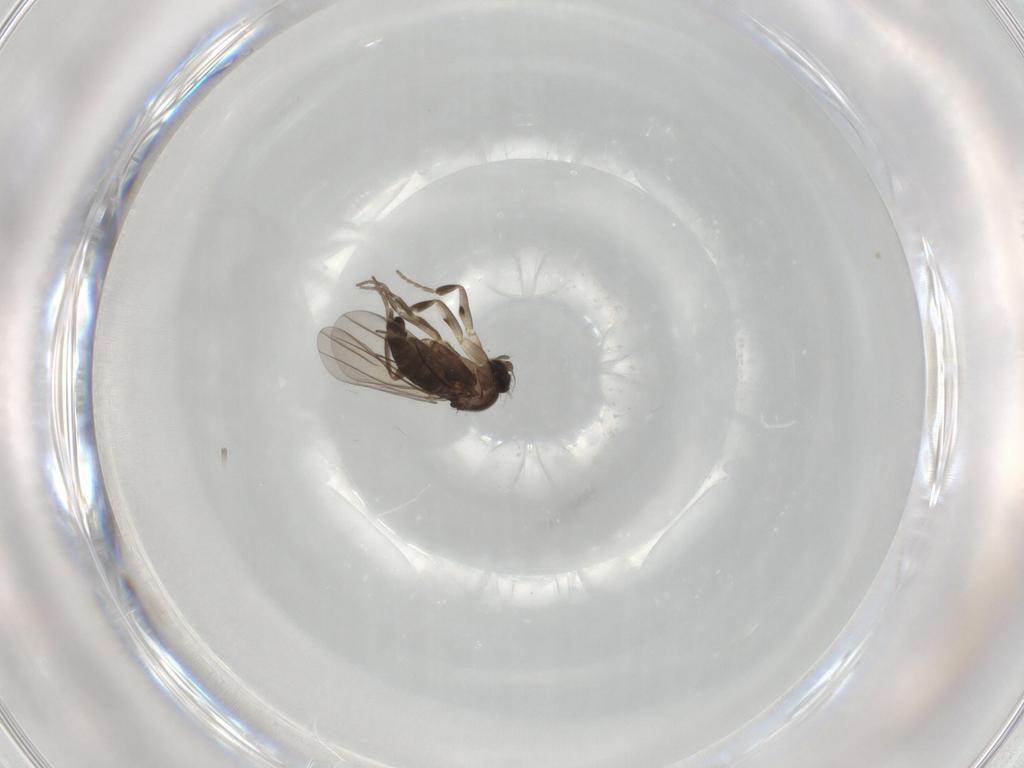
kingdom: Animalia
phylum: Arthropoda
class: Insecta
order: Diptera
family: Phoridae
